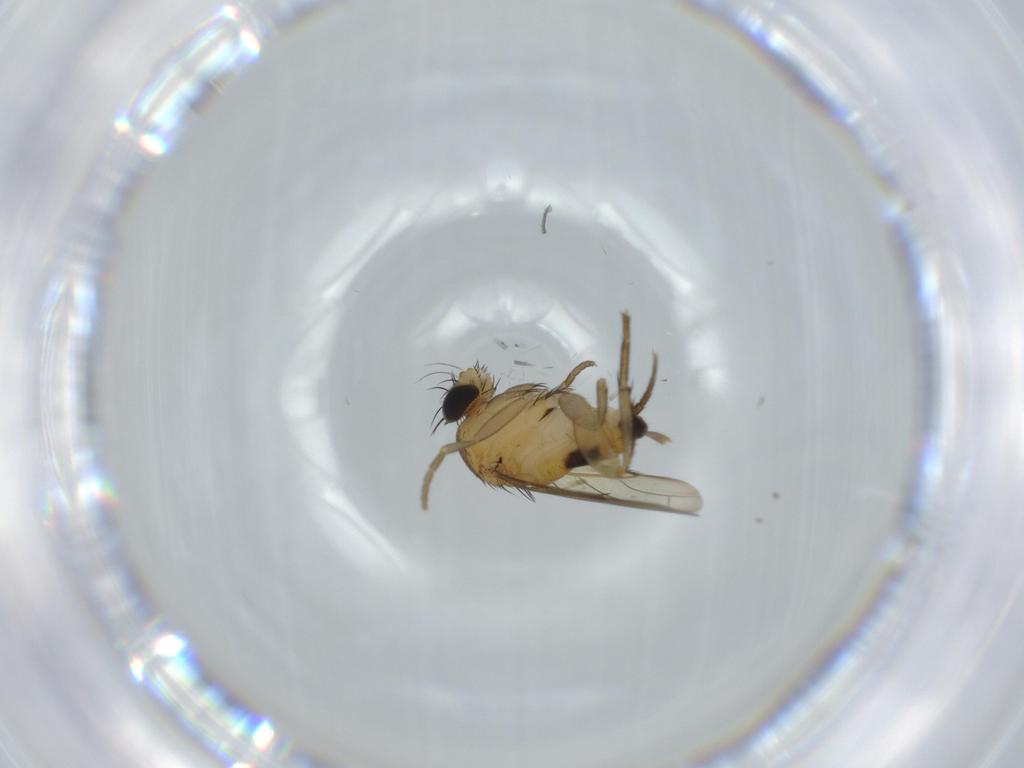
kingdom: Animalia
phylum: Arthropoda
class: Insecta
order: Diptera
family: Phoridae
